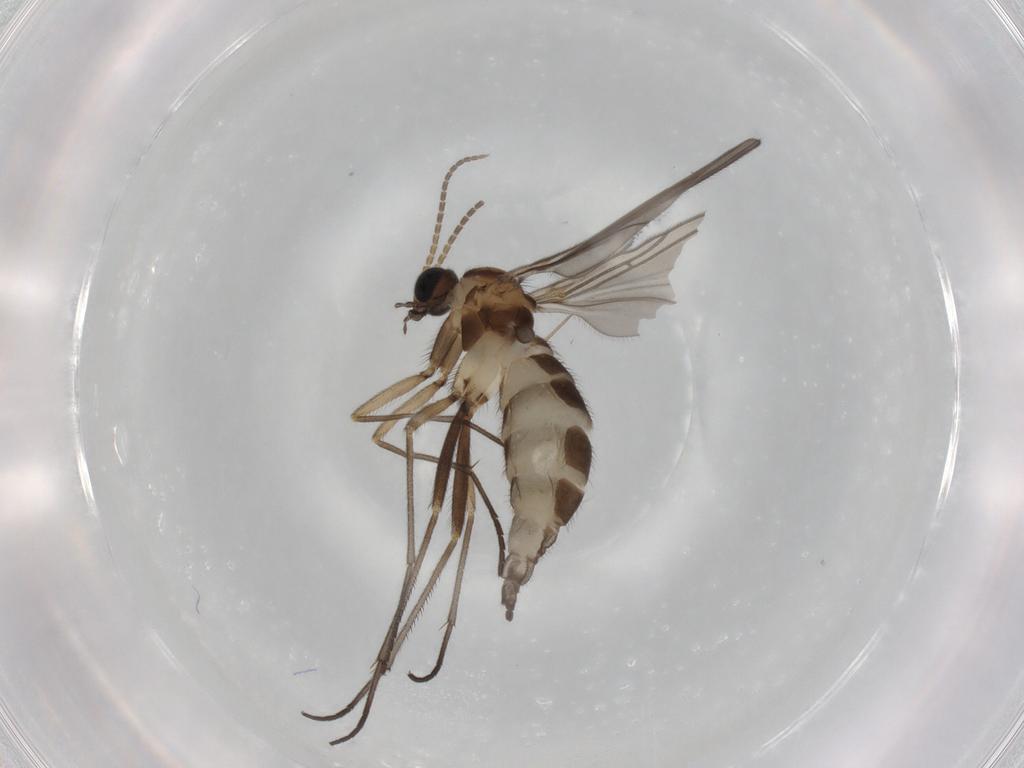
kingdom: Animalia
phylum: Arthropoda
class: Insecta
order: Diptera
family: Sciaridae
